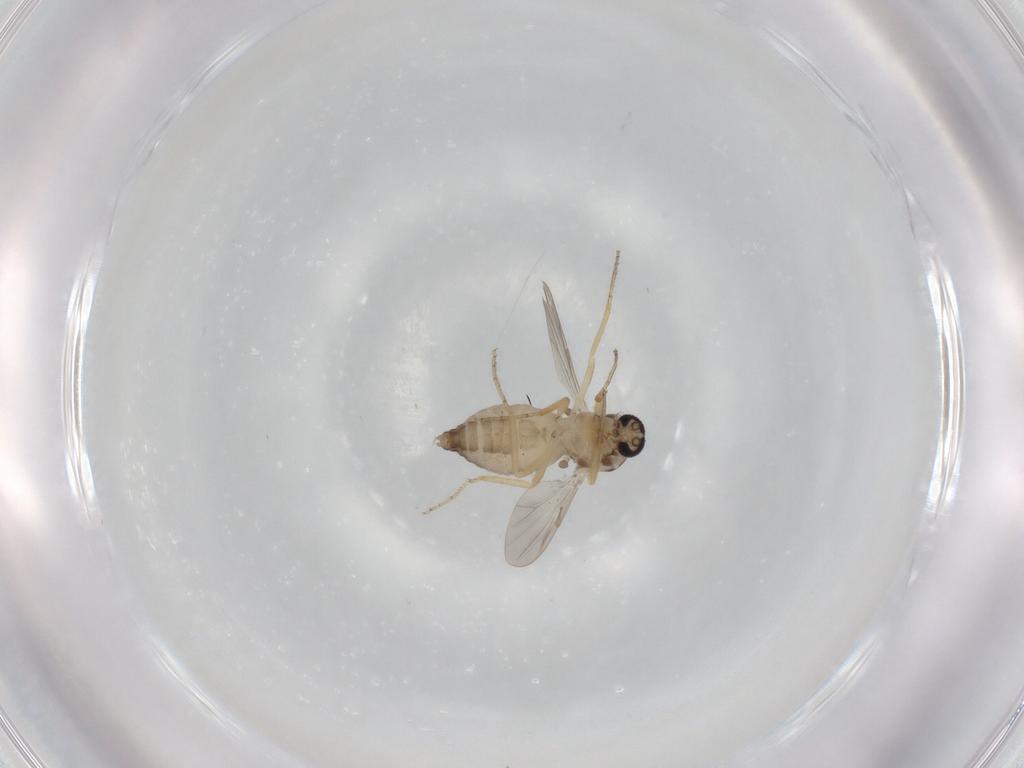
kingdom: Animalia
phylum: Arthropoda
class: Insecta
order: Diptera
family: Ceratopogonidae
